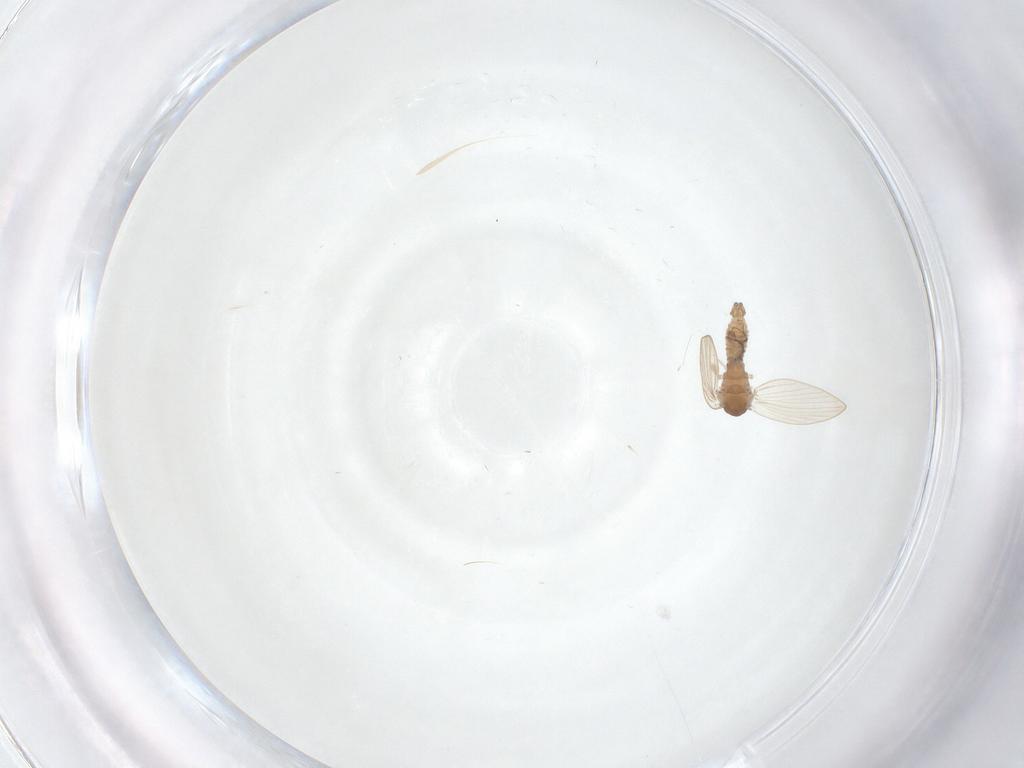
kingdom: Animalia
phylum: Arthropoda
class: Insecta
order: Diptera
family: Psychodidae
